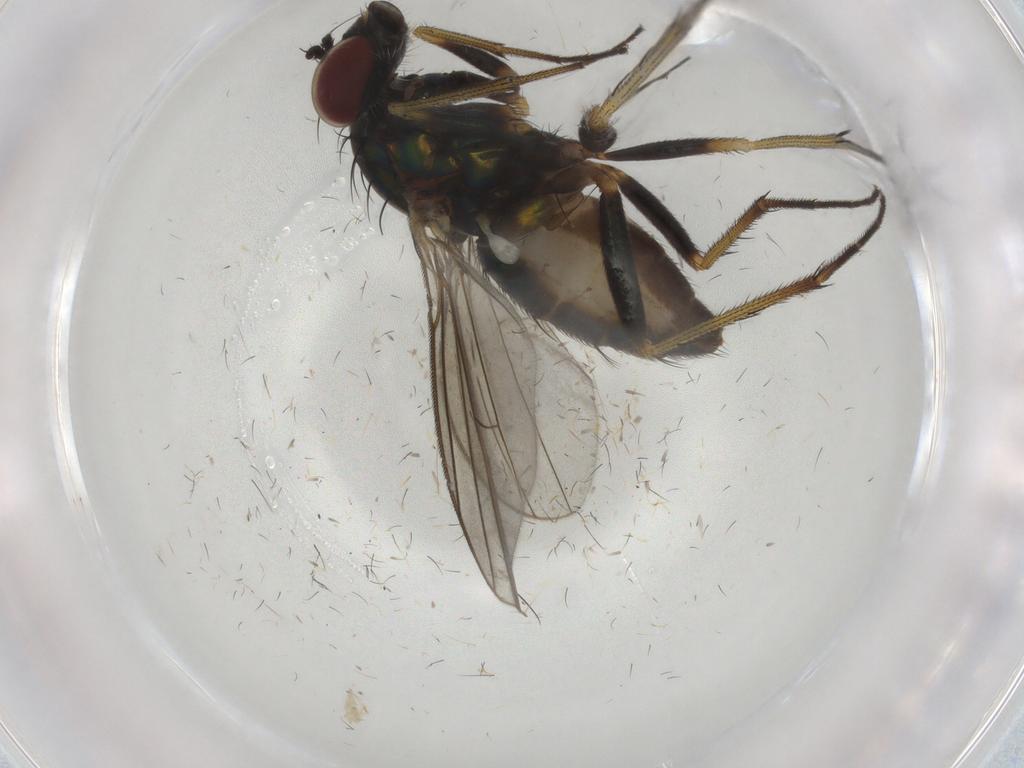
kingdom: Animalia
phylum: Arthropoda
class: Insecta
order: Diptera
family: Dolichopodidae
